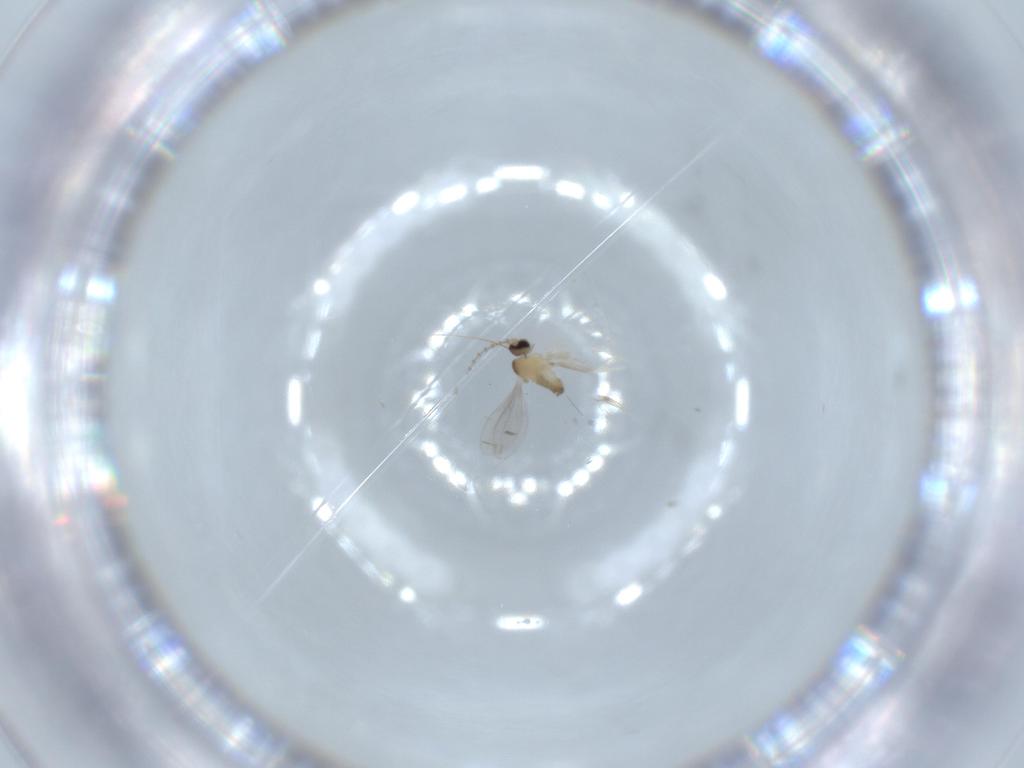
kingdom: Animalia
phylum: Arthropoda
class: Insecta
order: Diptera
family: Cecidomyiidae
